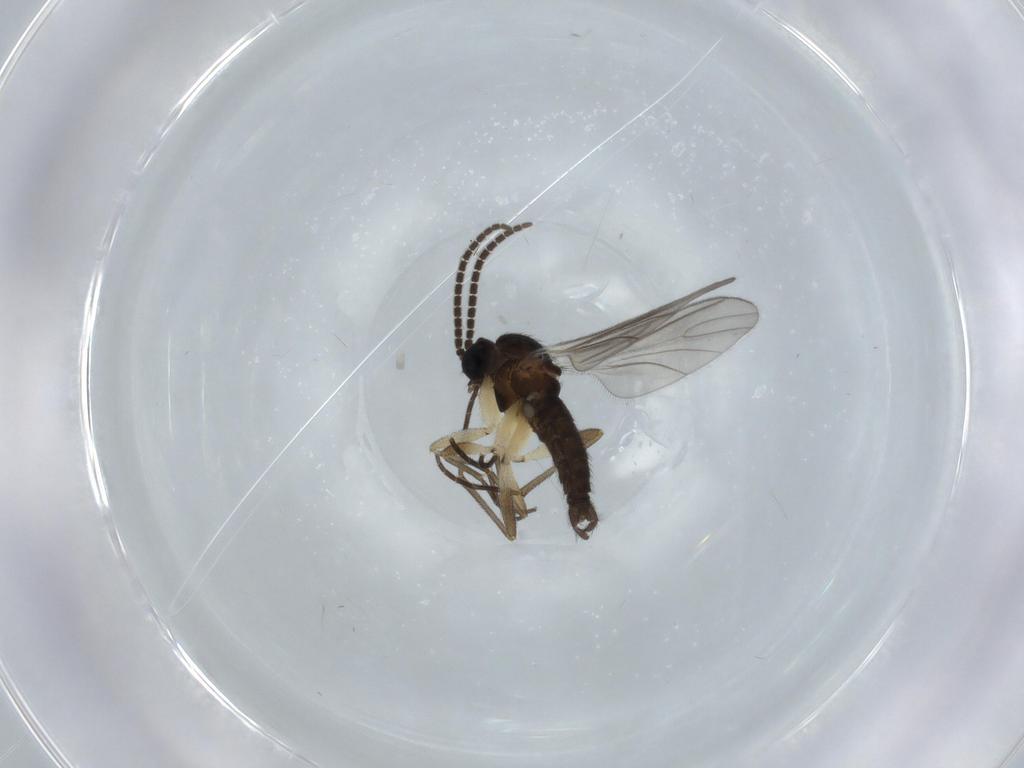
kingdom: Animalia
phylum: Arthropoda
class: Insecta
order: Diptera
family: Sciaridae
